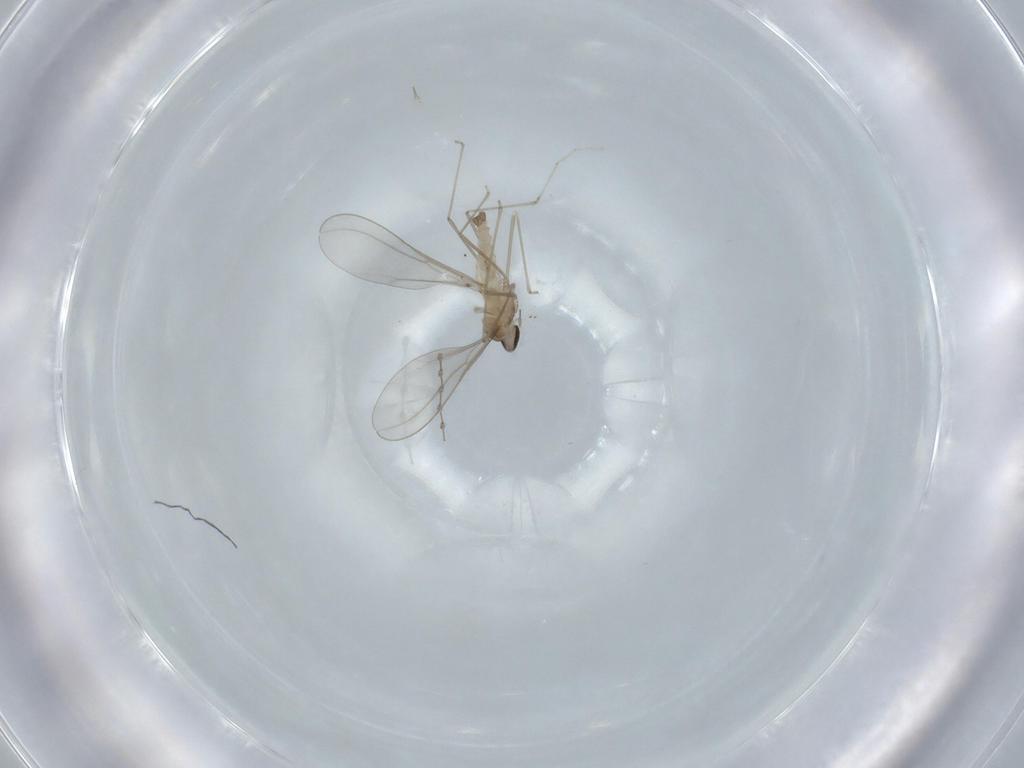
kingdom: Animalia
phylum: Arthropoda
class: Insecta
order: Diptera
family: Cecidomyiidae
